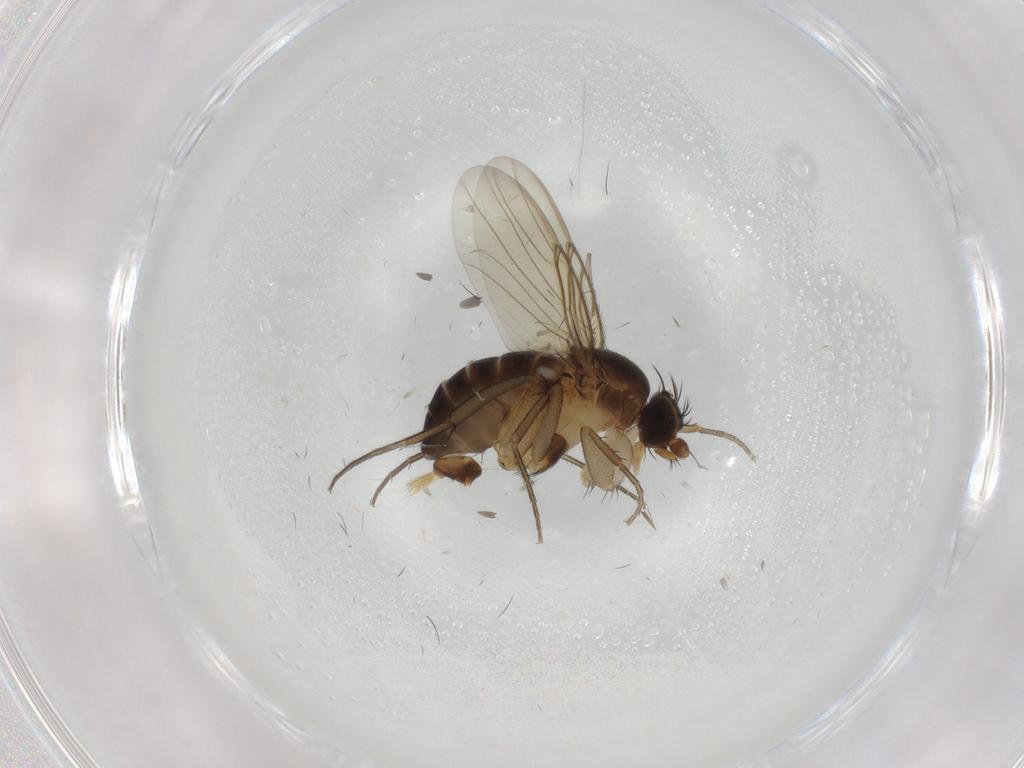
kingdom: Animalia
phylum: Arthropoda
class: Insecta
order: Diptera
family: Phoridae
